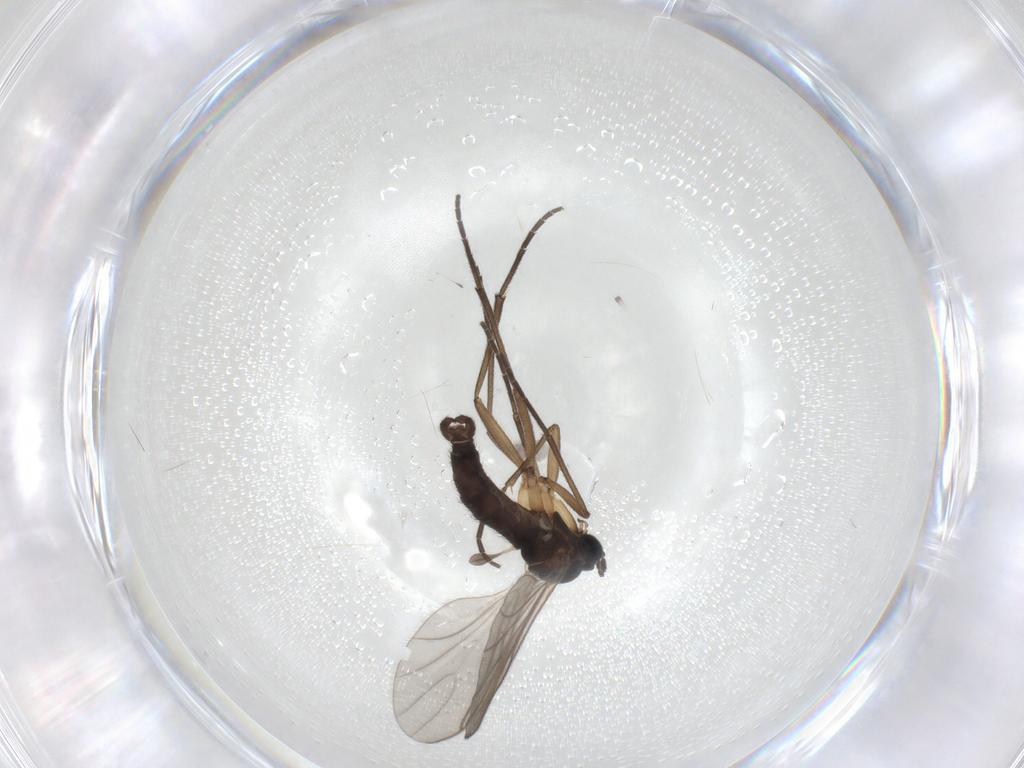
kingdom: Animalia
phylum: Arthropoda
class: Insecta
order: Diptera
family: Sciaridae
